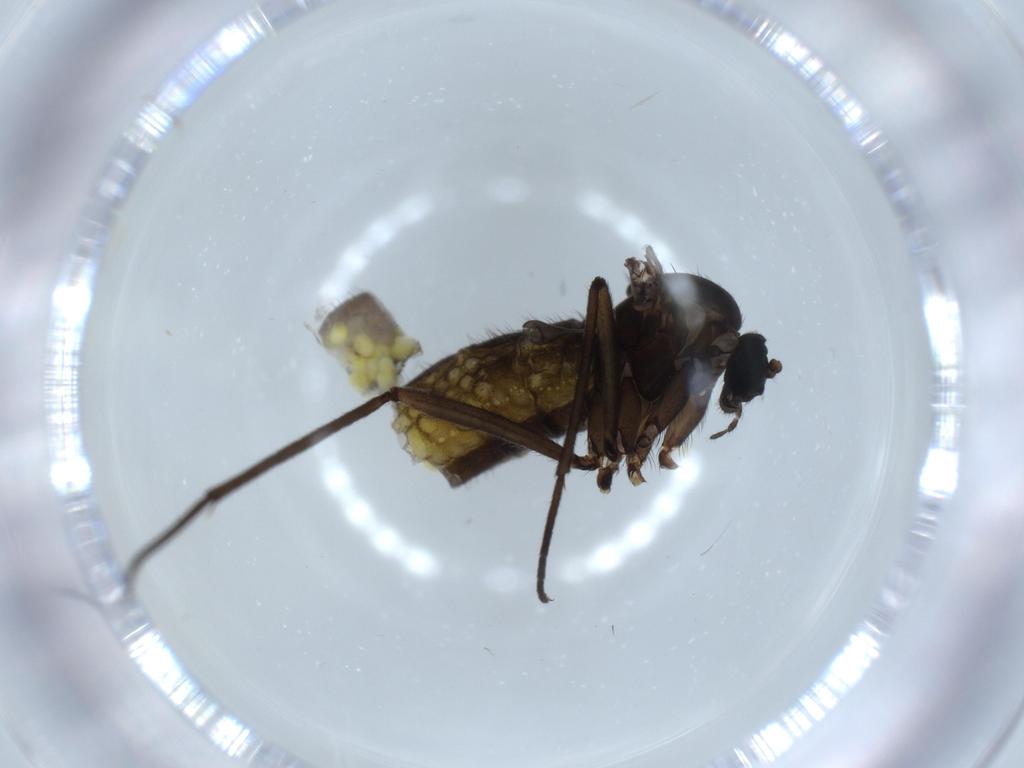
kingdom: Animalia
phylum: Arthropoda
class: Insecta
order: Diptera
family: Sciaridae
